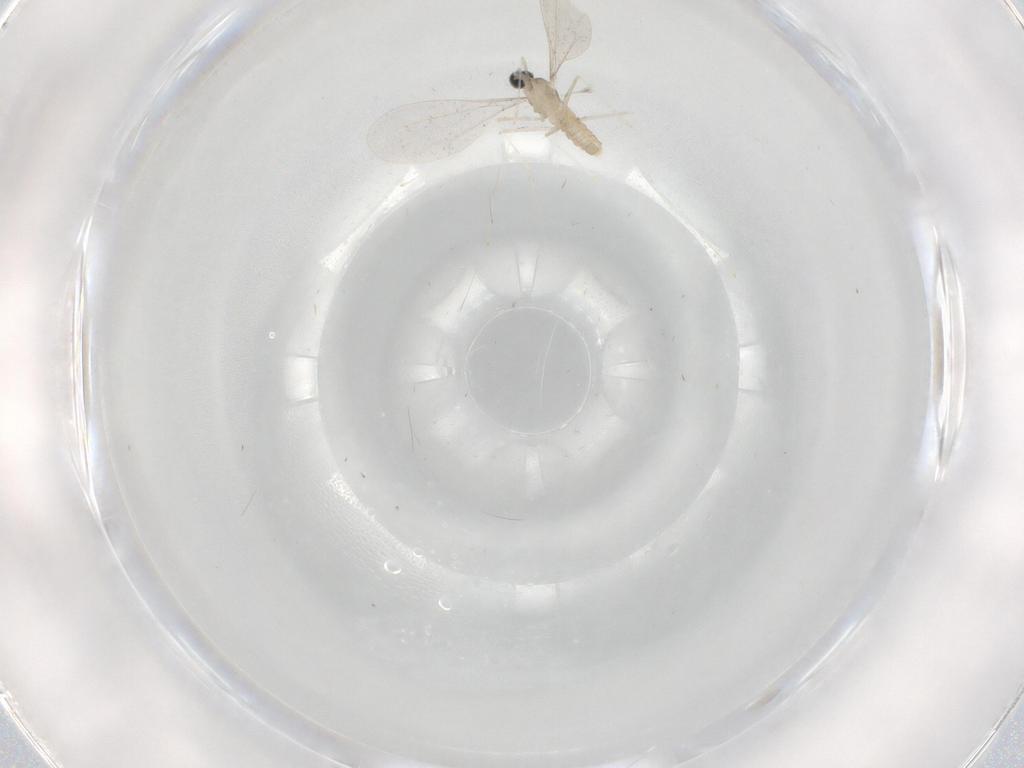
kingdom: Animalia
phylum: Arthropoda
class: Insecta
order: Diptera
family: Cecidomyiidae
